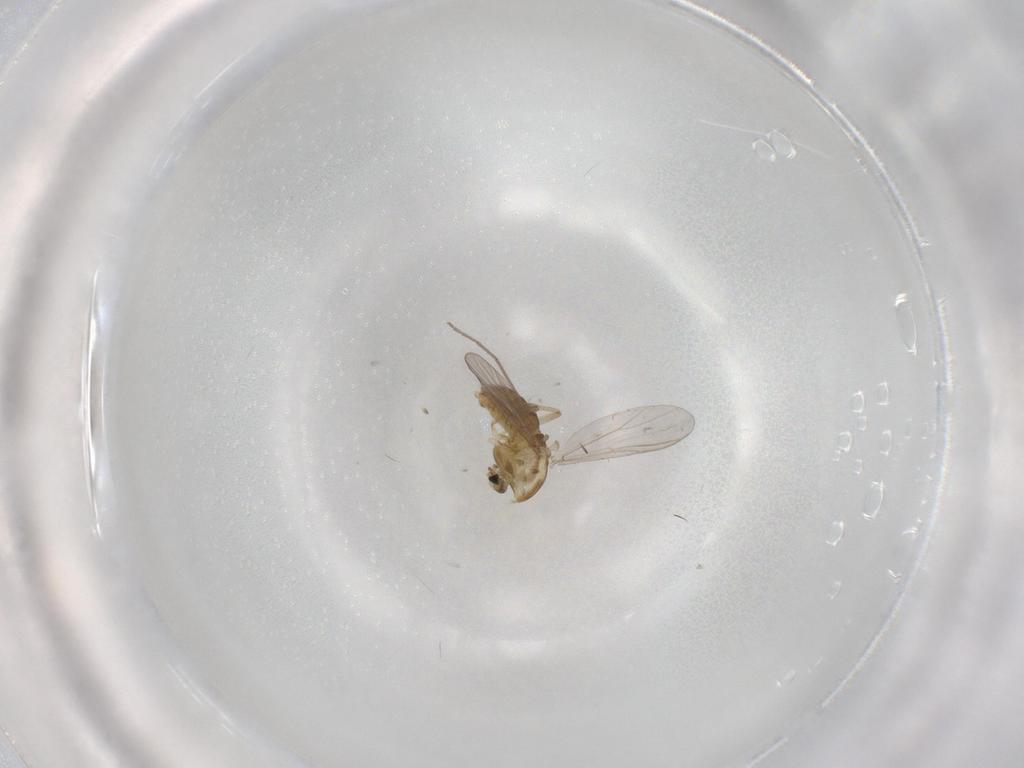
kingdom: Animalia
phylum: Arthropoda
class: Insecta
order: Diptera
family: Chironomidae
